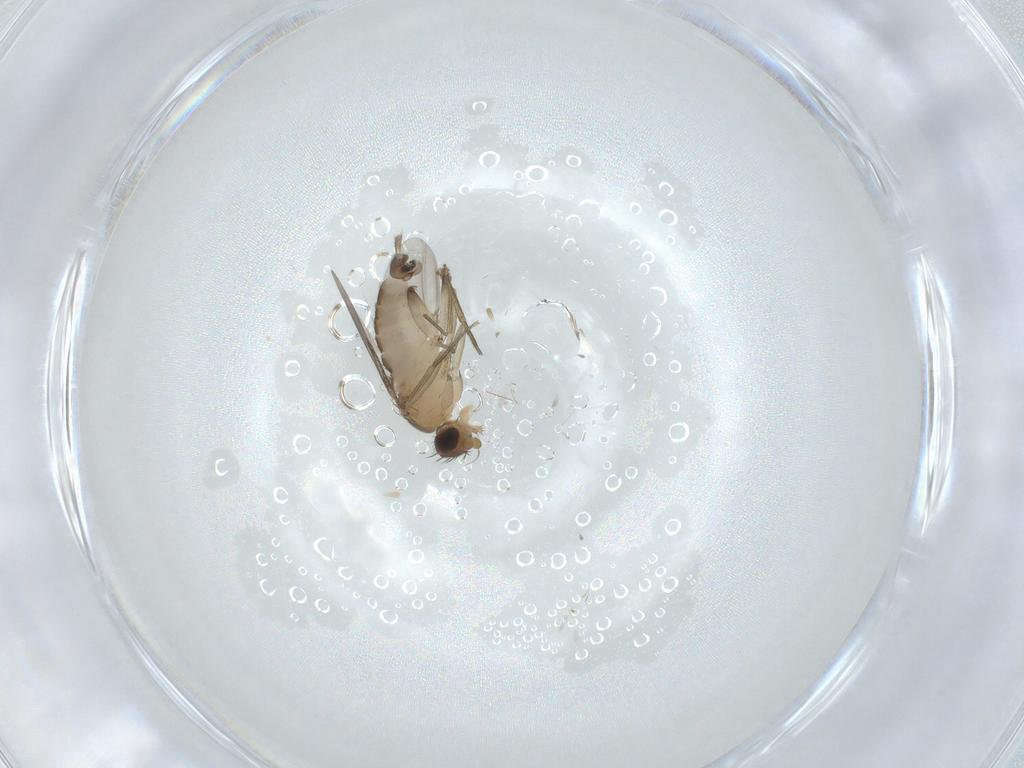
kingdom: Animalia
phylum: Arthropoda
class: Insecta
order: Diptera
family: Phoridae
